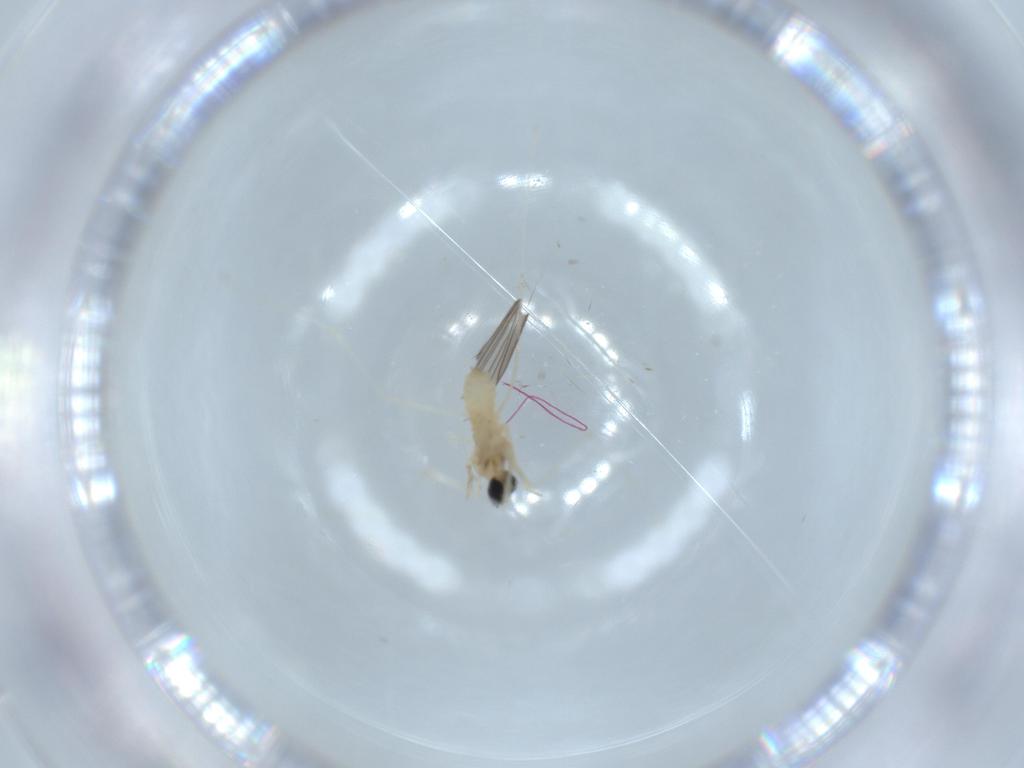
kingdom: Animalia
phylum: Arthropoda
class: Insecta
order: Diptera
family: Cecidomyiidae
